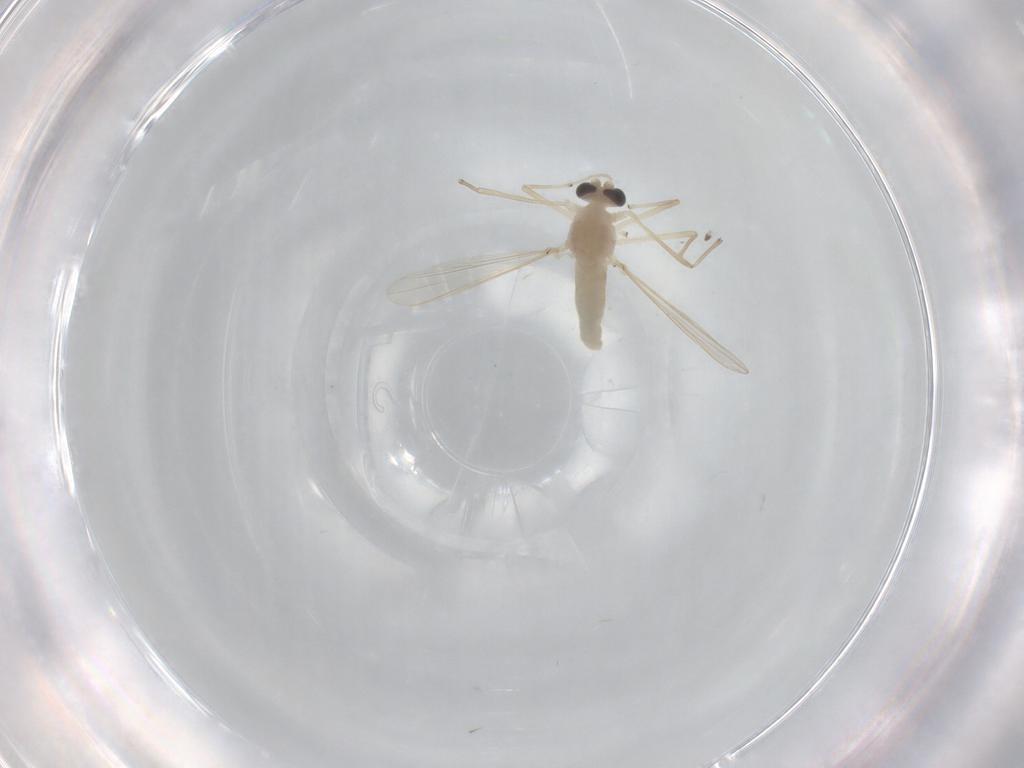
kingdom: Animalia
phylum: Arthropoda
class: Insecta
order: Diptera
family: Chironomidae
